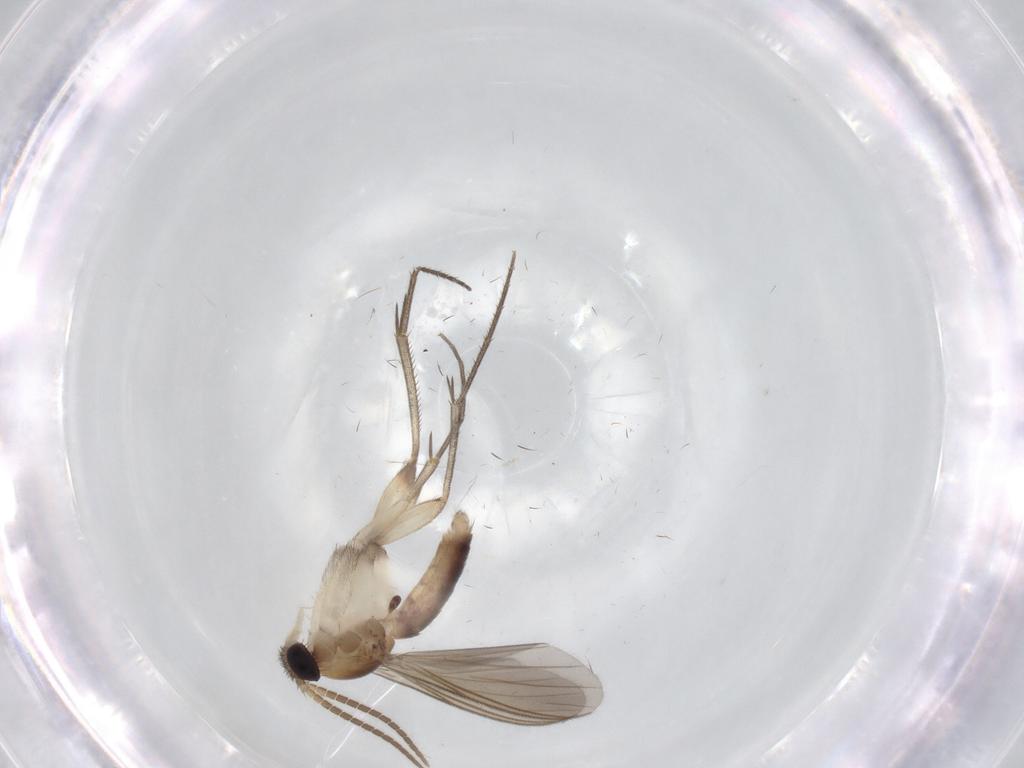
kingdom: Animalia
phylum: Arthropoda
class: Insecta
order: Diptera
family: Mycetophilidae
